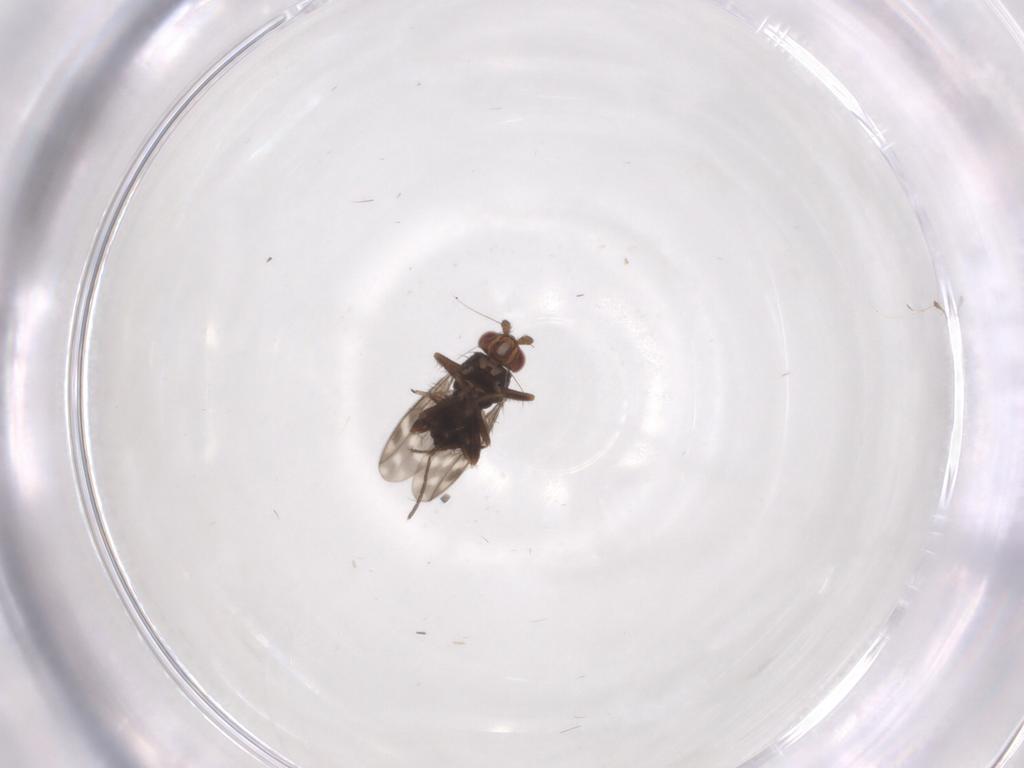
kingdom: Animalia
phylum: Arthropoda
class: Insecta
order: Diptera
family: Sphaeroceridae
